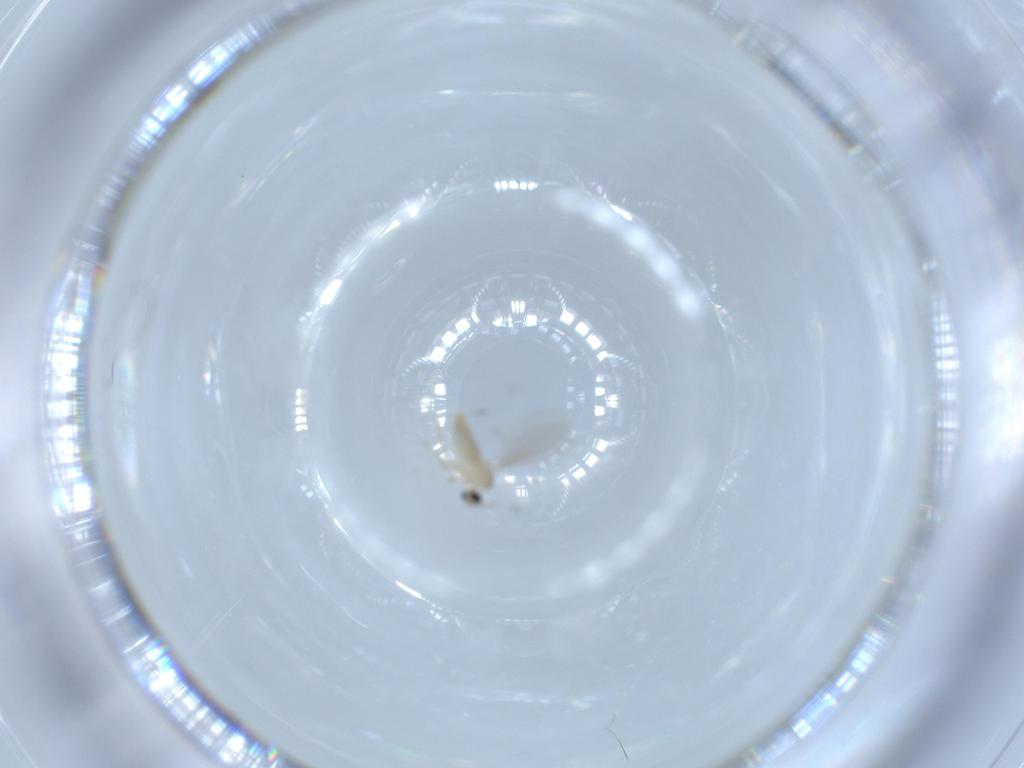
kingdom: Animalia
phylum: Arthropoda
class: Insecta
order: Diptera
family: Cecidomyiidae
